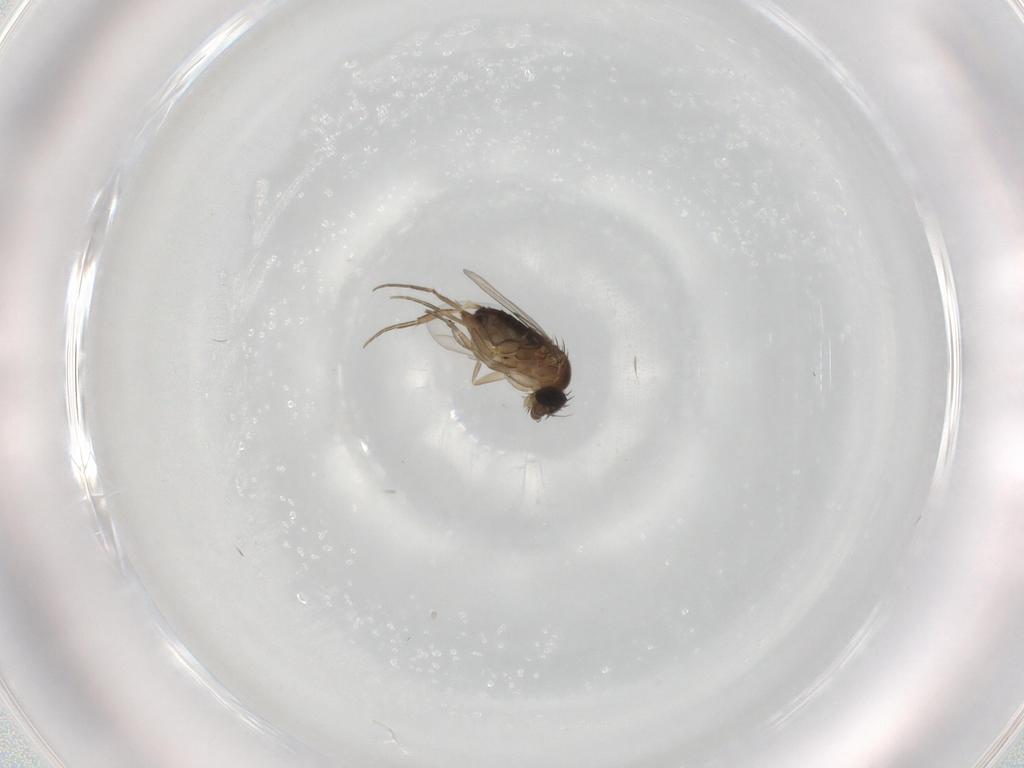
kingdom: Animalia
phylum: Arthropoda
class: Insecta
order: Diptera
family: Phoridae
